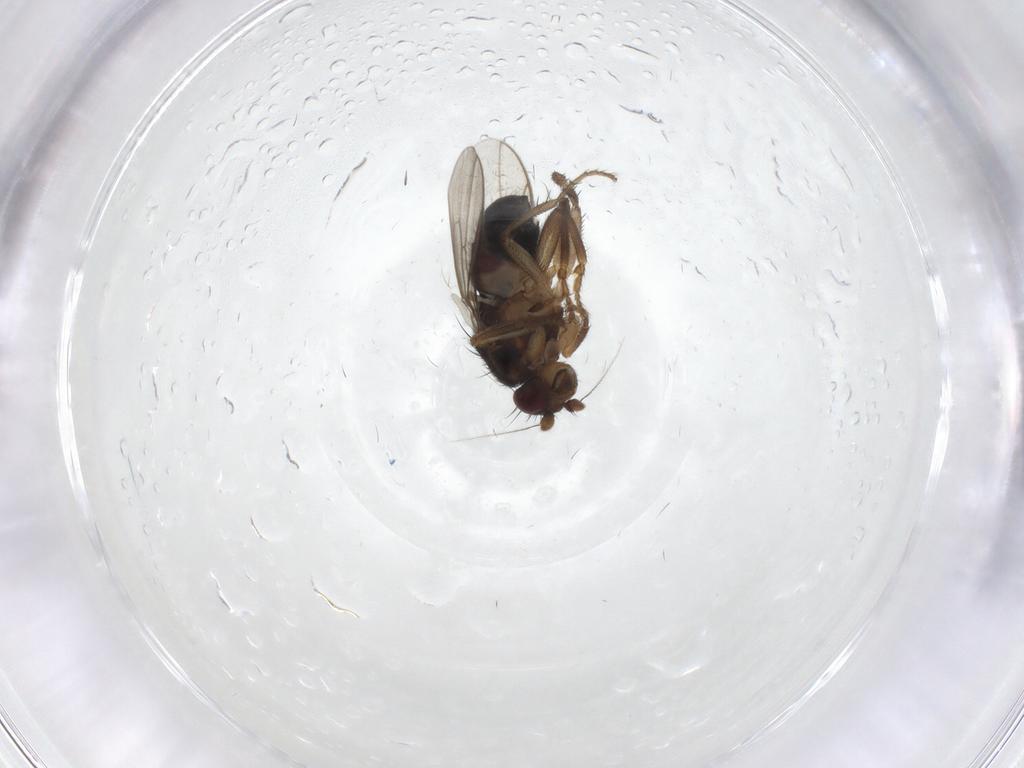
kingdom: Animalia
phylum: Arthropoda
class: Insecta
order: Diptera
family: Sphaeroceridae
